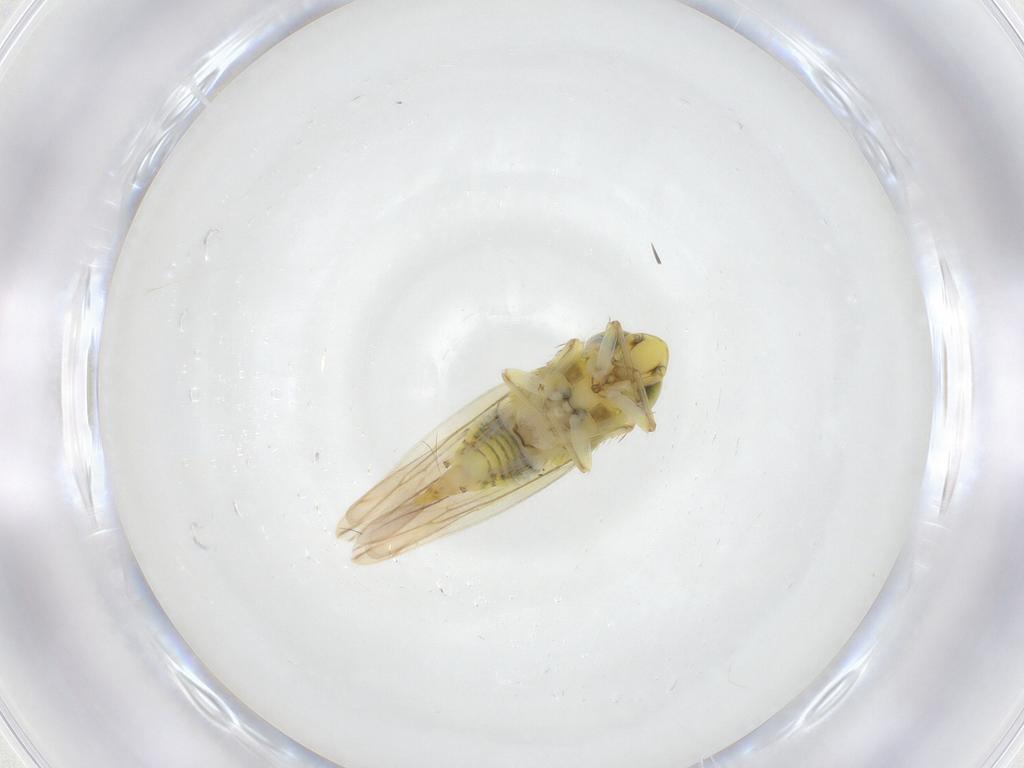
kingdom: Animalia
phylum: Arthropoda
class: Insecta
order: Hemiptera
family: Cicadellidae
